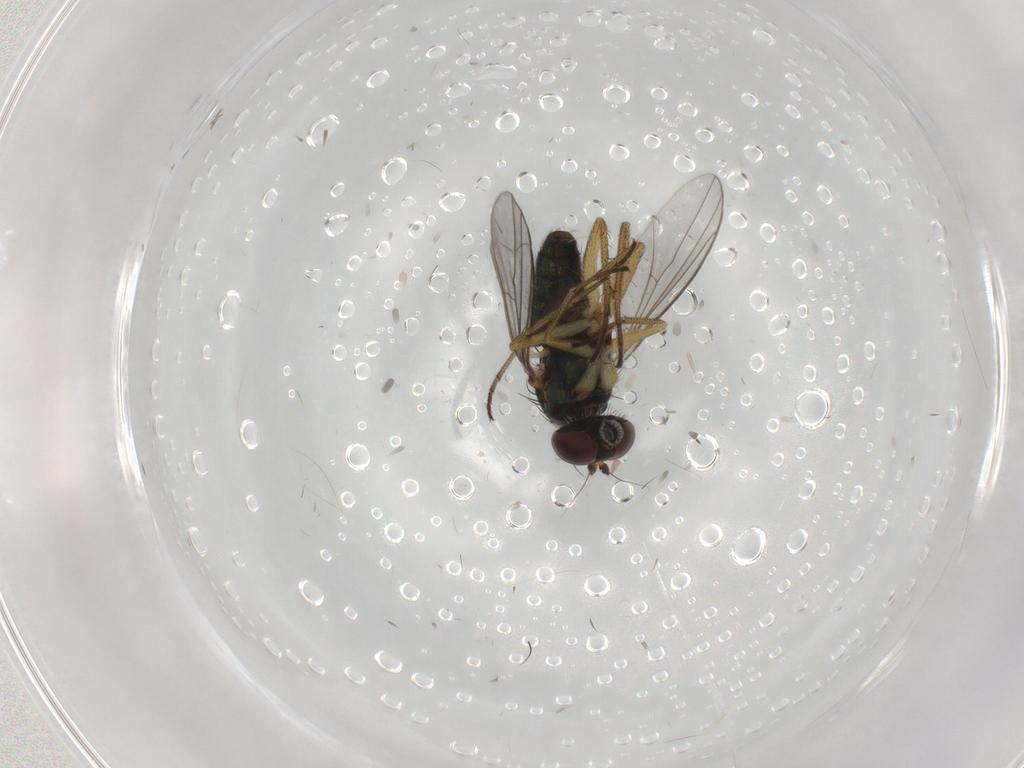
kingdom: Animalia
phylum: Arthropoda
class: Insecta
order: Diptera
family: Dolichopodidae
